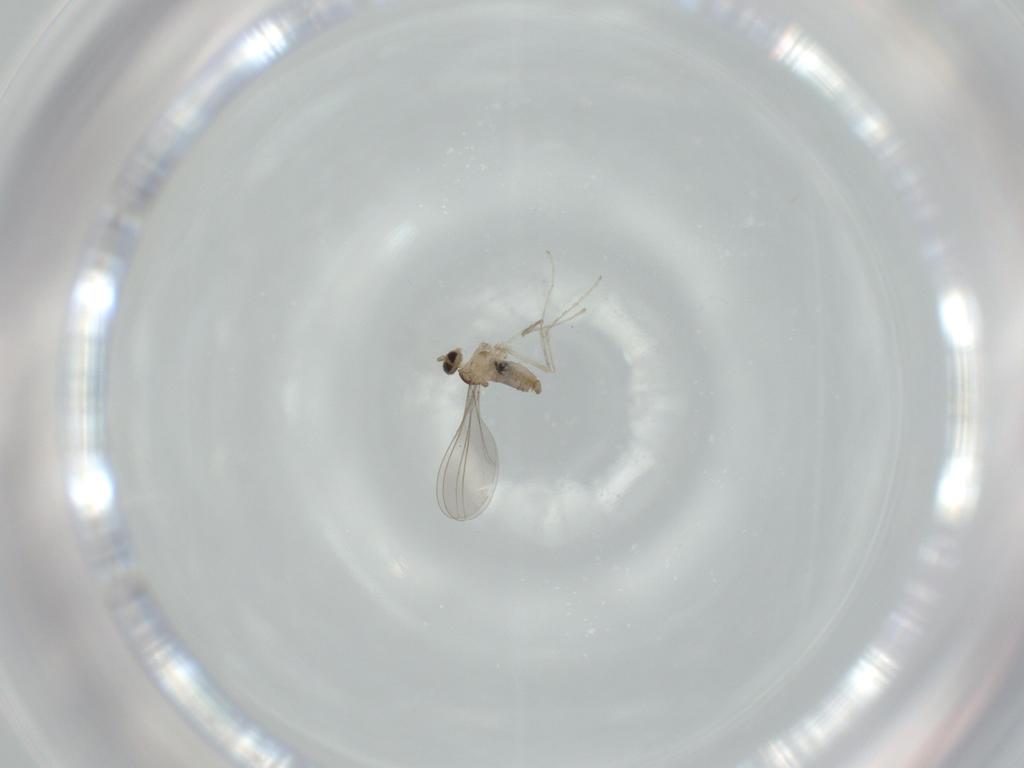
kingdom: Animalia
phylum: Arthropoda
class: Insecta
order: Diptera
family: Cecidomyiidae
